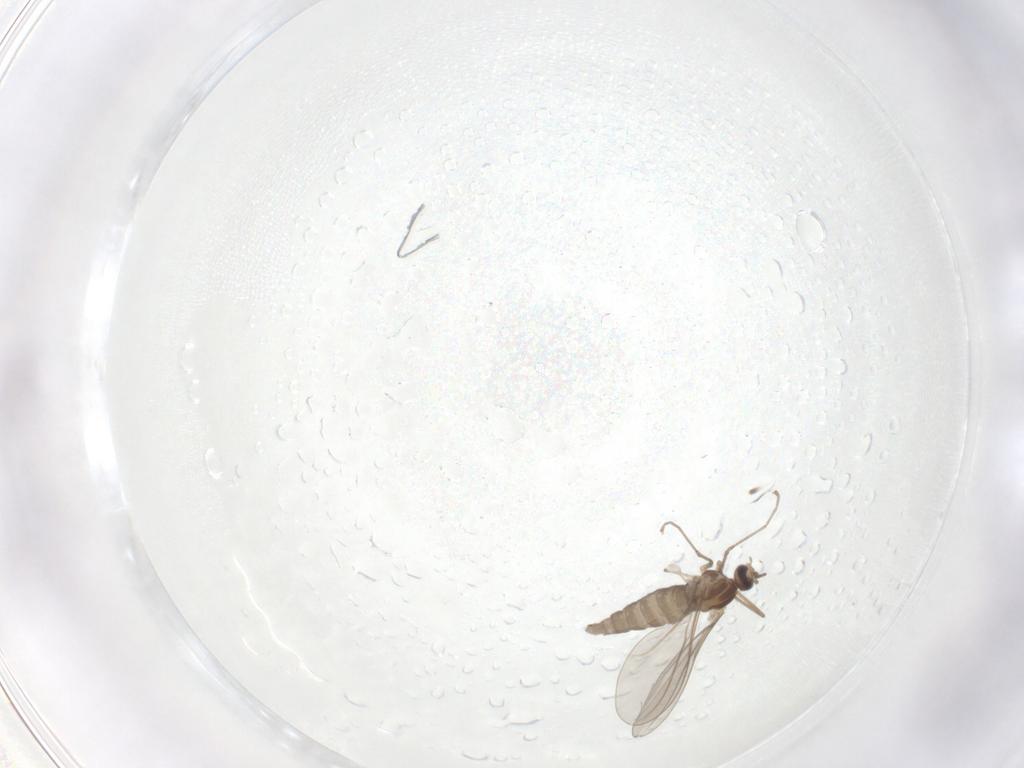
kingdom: Animalia
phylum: Arthropoda
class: Insecta
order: Diptera
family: Cecidomyiidae
